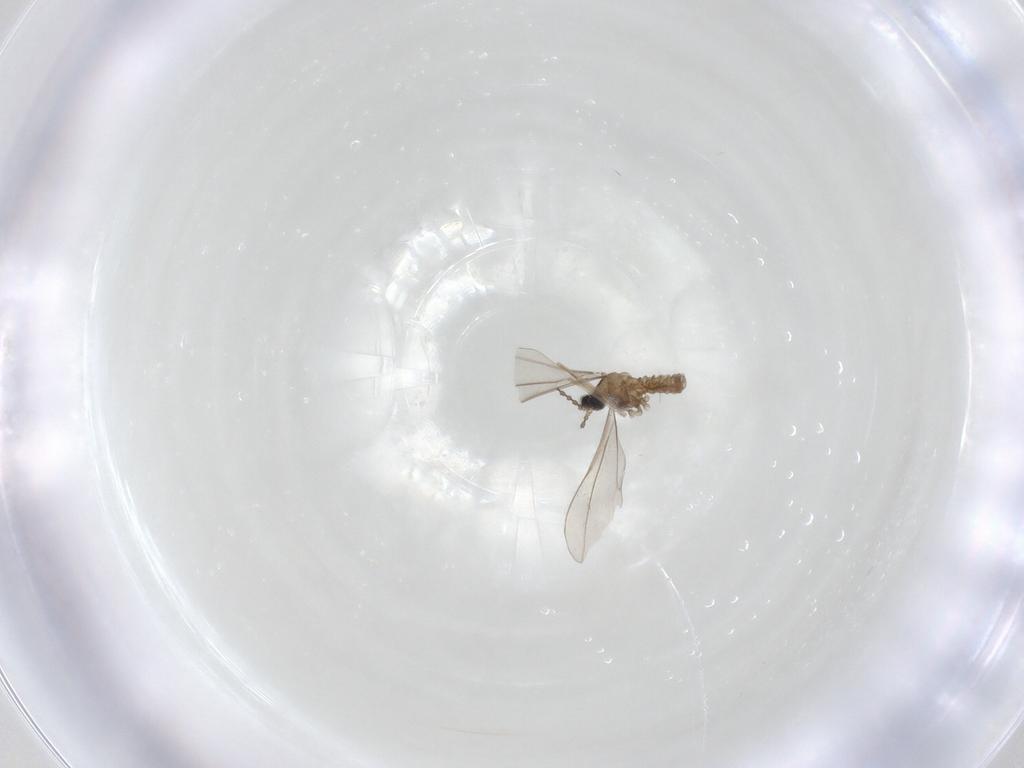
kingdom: Animalia
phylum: Arthropoda
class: Insecta
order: Diptera
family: Cecidomyiidae
